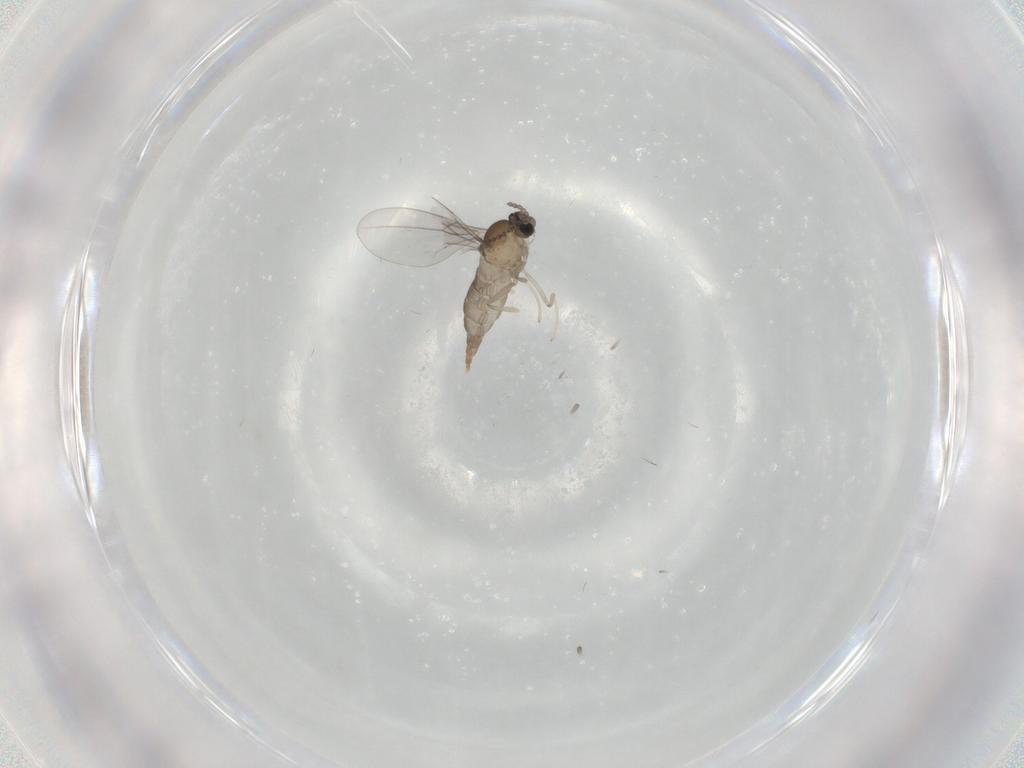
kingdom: Animalia
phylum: Arthropoda
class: Insecta
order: Diptera
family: Cecidomyiidae
